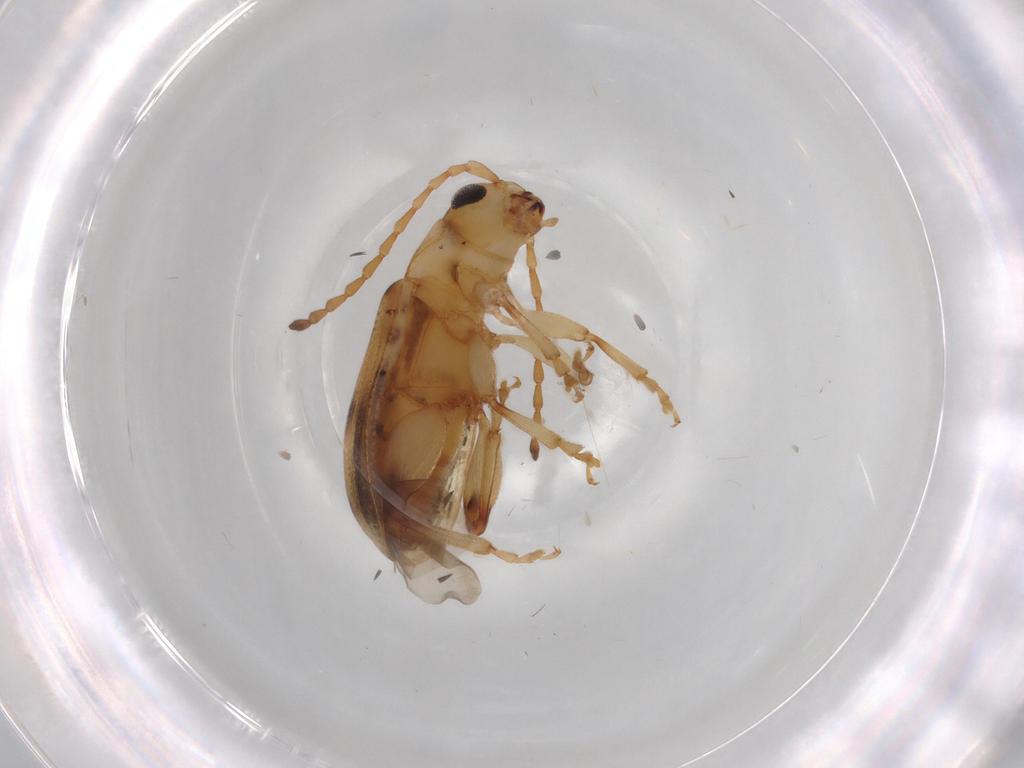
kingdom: Animalia
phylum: Arthropoda
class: Insecta
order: Coleoptera
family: Chrysomelidae
